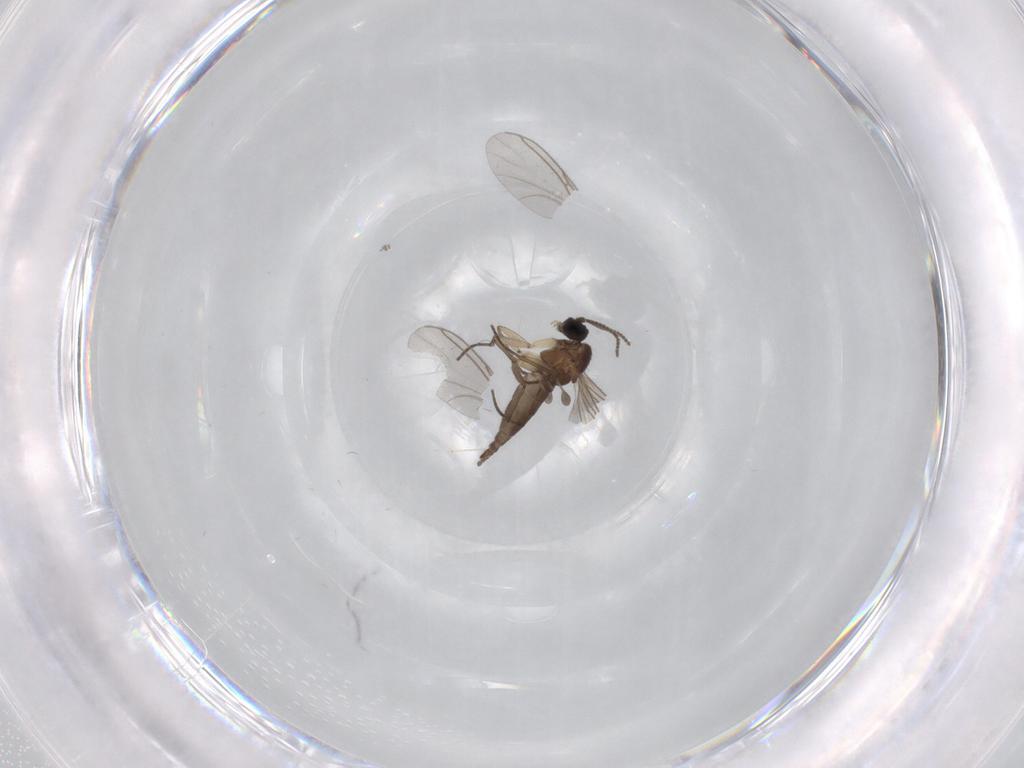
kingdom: Animalia
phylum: Arthropoda
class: Insecta
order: Diptera
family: Sciaridae
